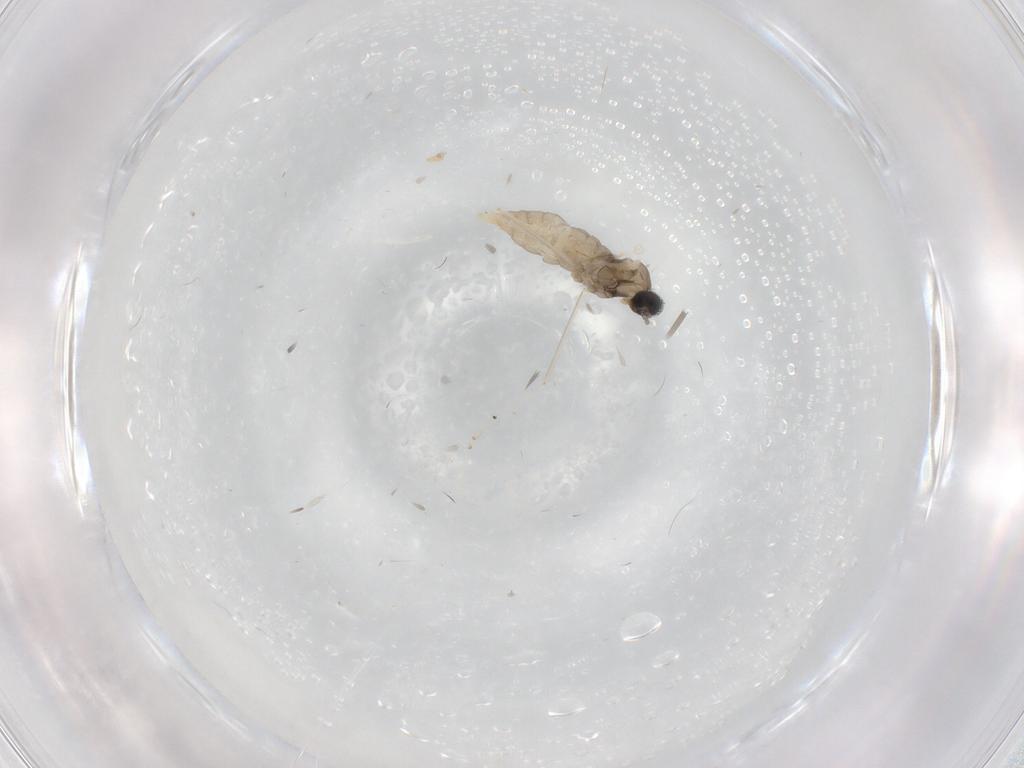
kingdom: Animalia
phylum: Arthropoda
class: Insecta
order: Diptera
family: Cecidomyiidae
